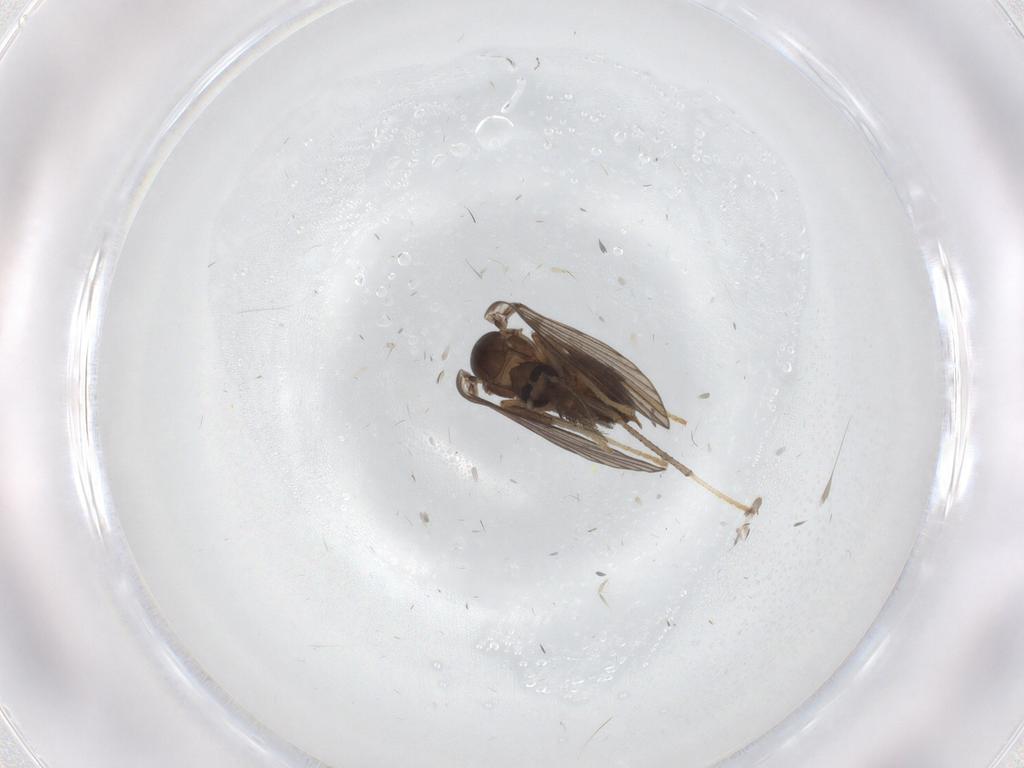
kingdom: Animalia
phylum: Arthropoda
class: Insecta
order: Diptera
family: Psychodidae
